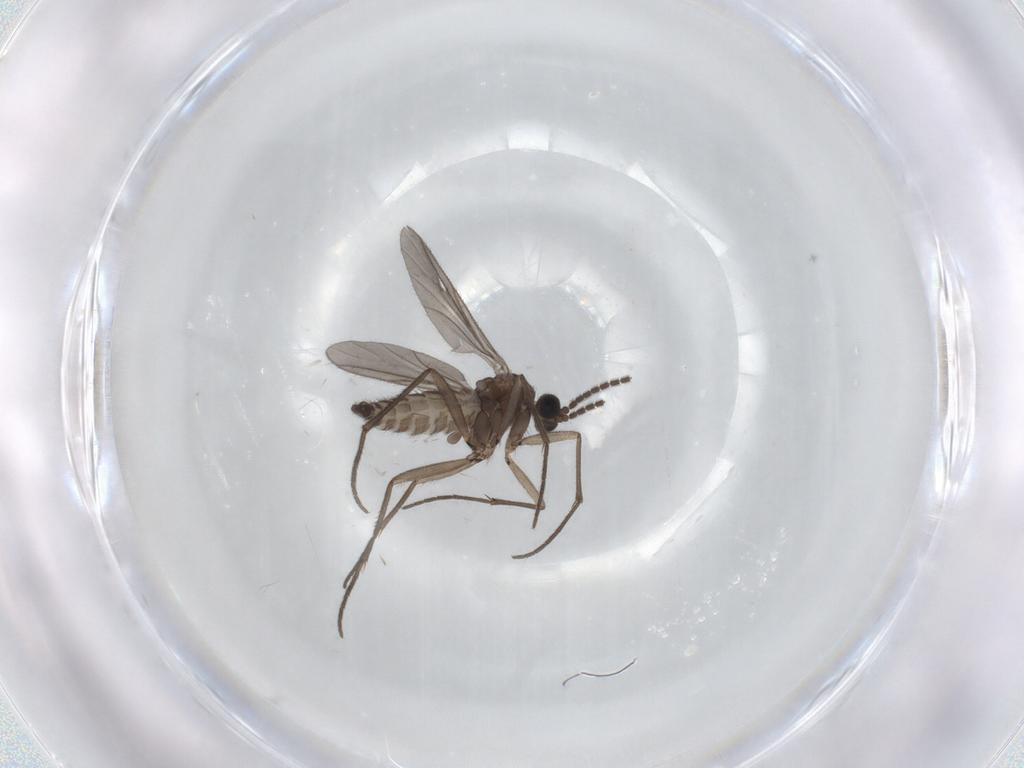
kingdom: Animalia
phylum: Arthropoda
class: Insecta
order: Diptera
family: Sciaridae
